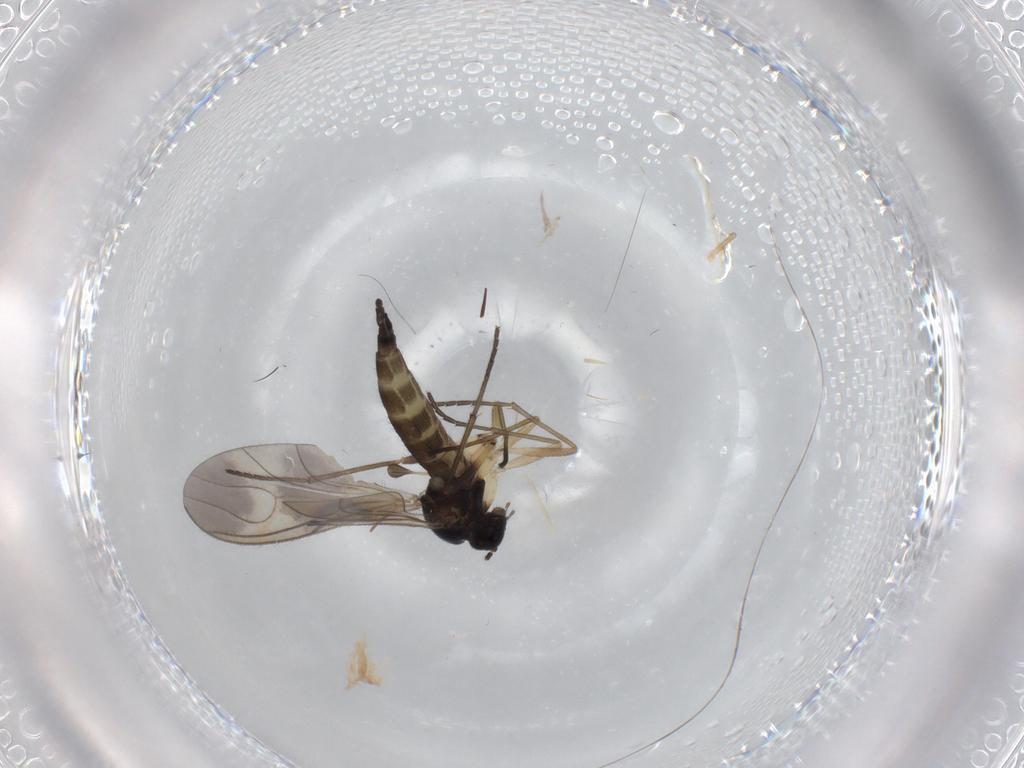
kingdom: Animalia
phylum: Arthropoda
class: Insecta
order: Diptera
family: Sciaridae
